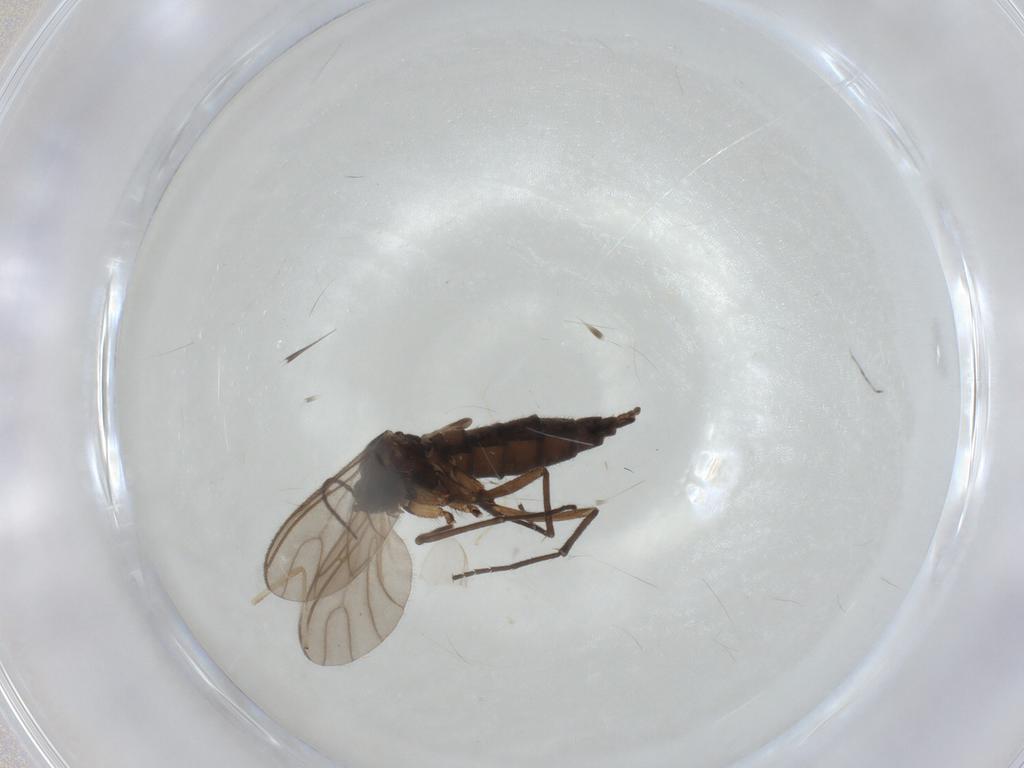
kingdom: Animalia
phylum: Arthropoda
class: Insecta
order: Diptera
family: Sciaridae
